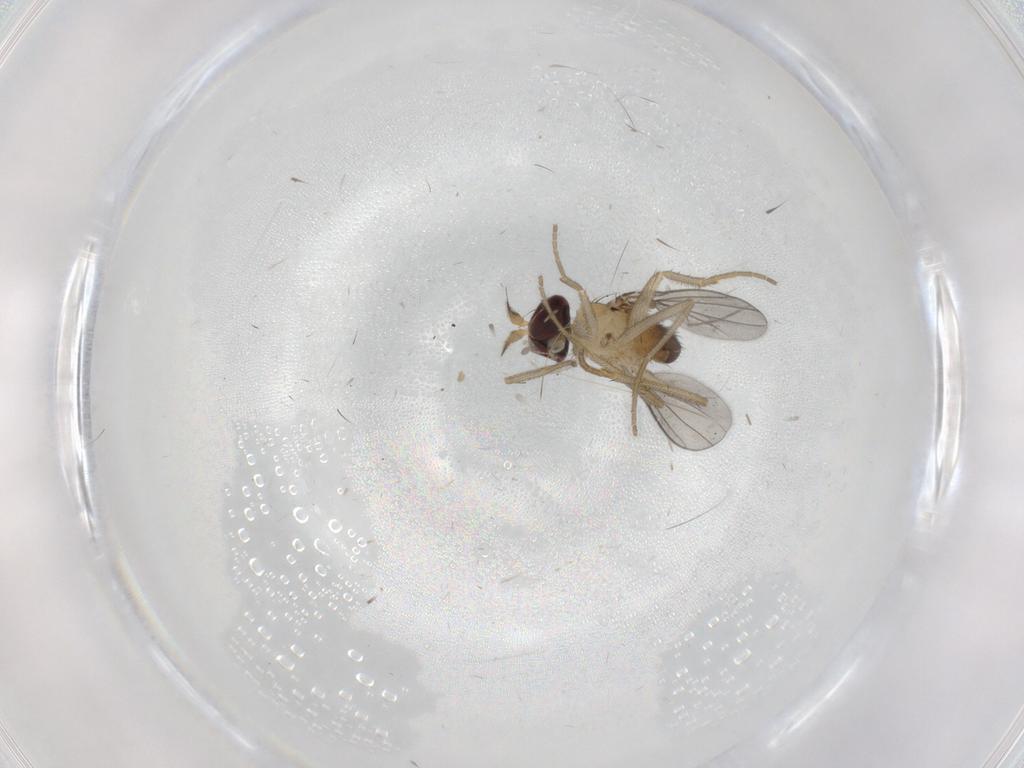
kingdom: Animalia
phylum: Arthropoda
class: Insecta
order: Diptera
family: Dolichopodidae
